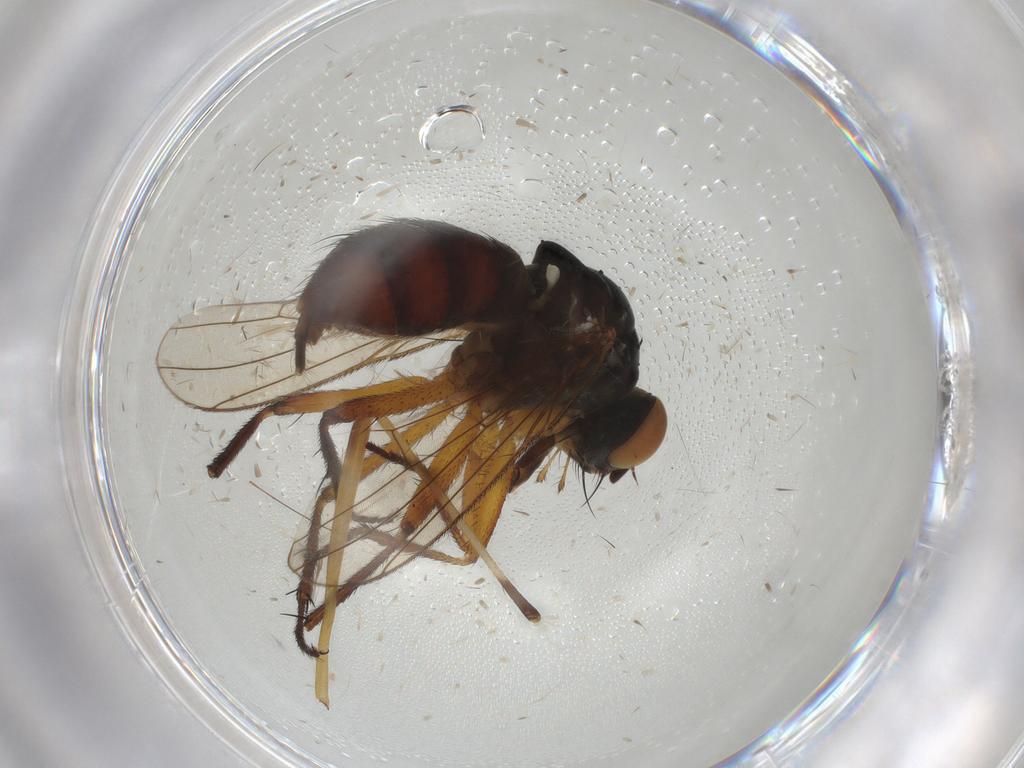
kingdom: Animalia
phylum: Arthropoda
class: Insecta
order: Diptera
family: Limoniidae
